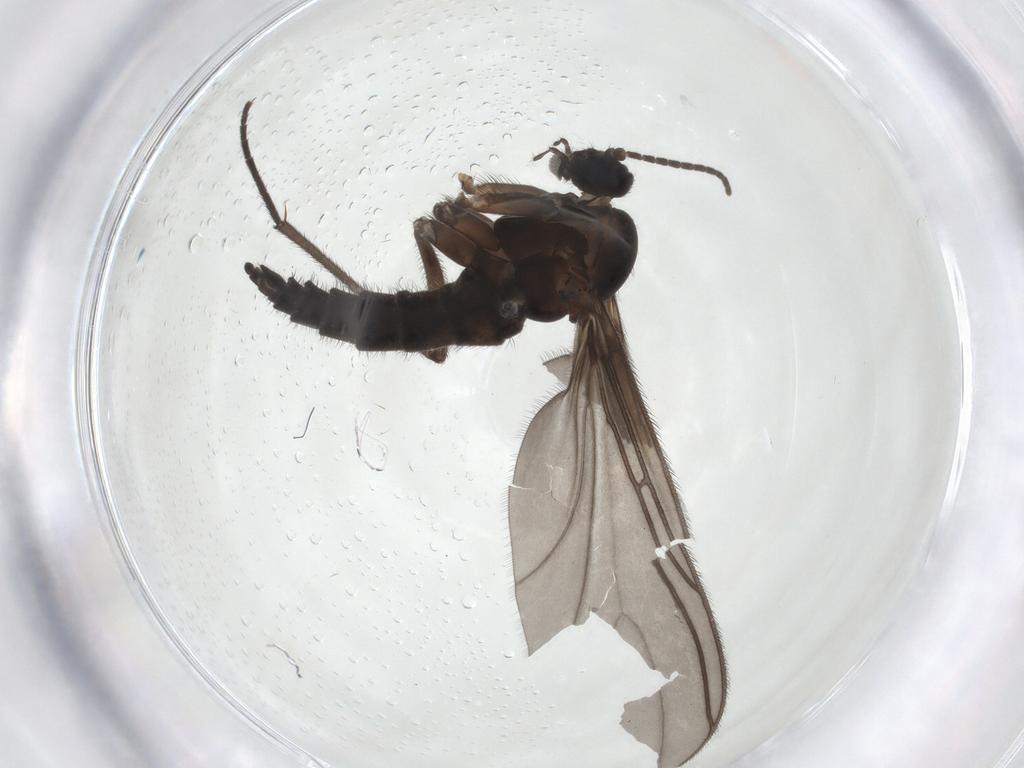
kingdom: Animalia
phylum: Arthropoda
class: Insecta
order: Diptera
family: Sciaridae
